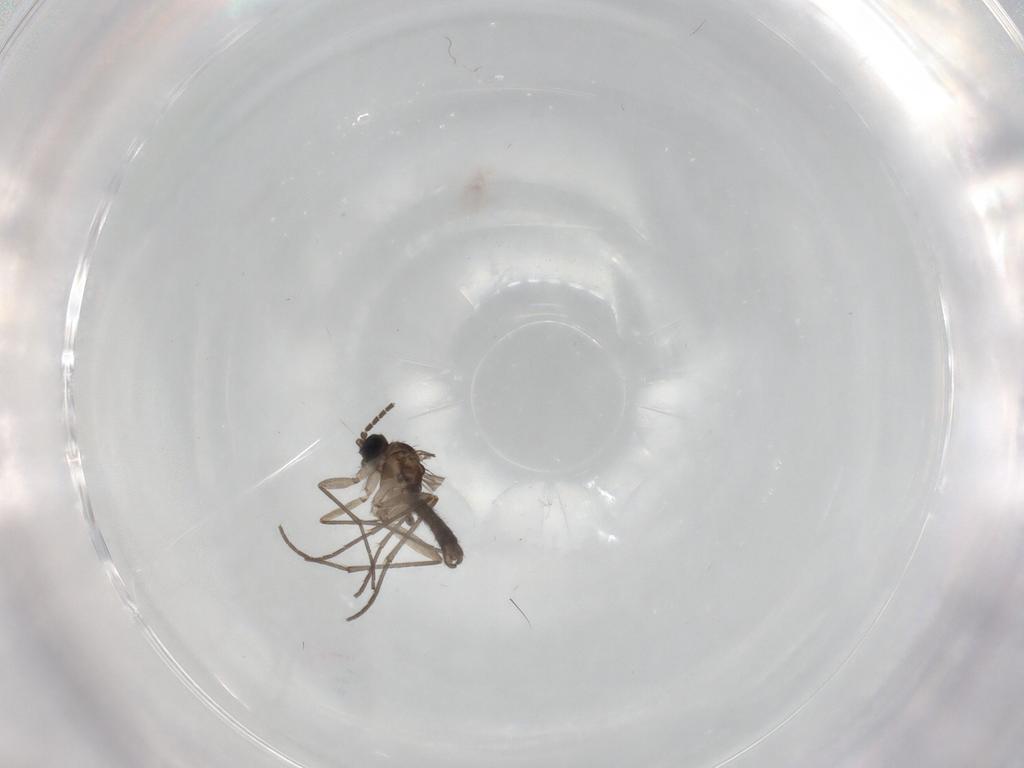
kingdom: Animalia
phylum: Arthropoda
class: Insecta
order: Diptera
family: Sciaridae
